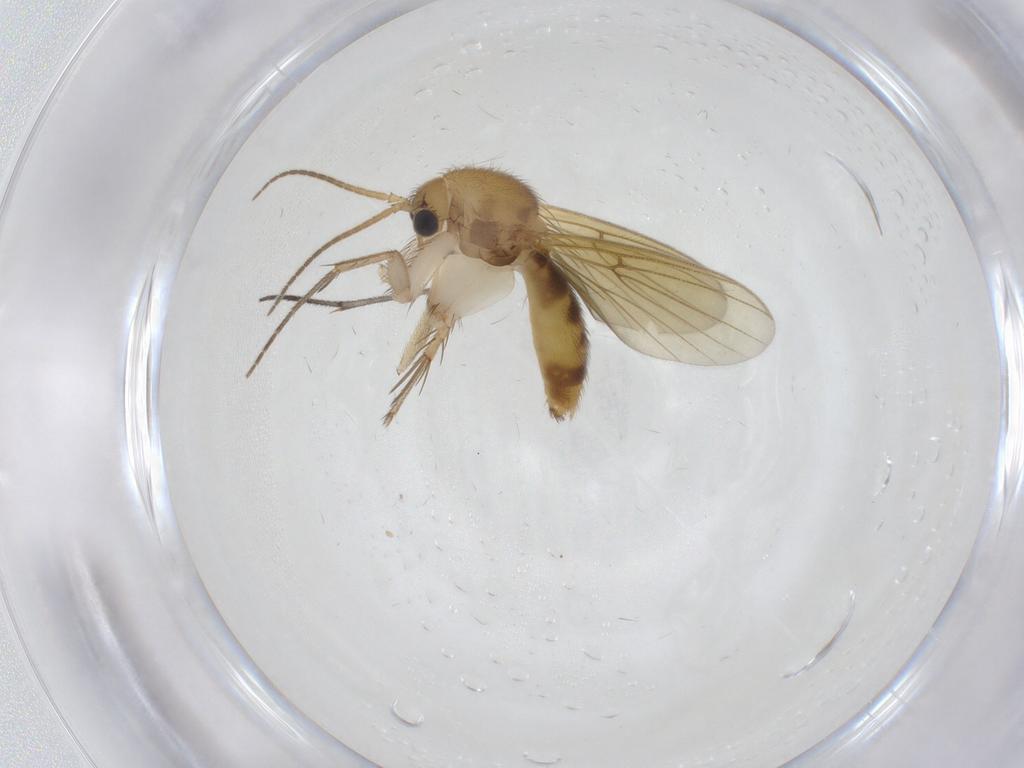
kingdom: Animalia
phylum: Arthropoda
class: Insecta
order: Diptera
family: Cecidomyiidae
